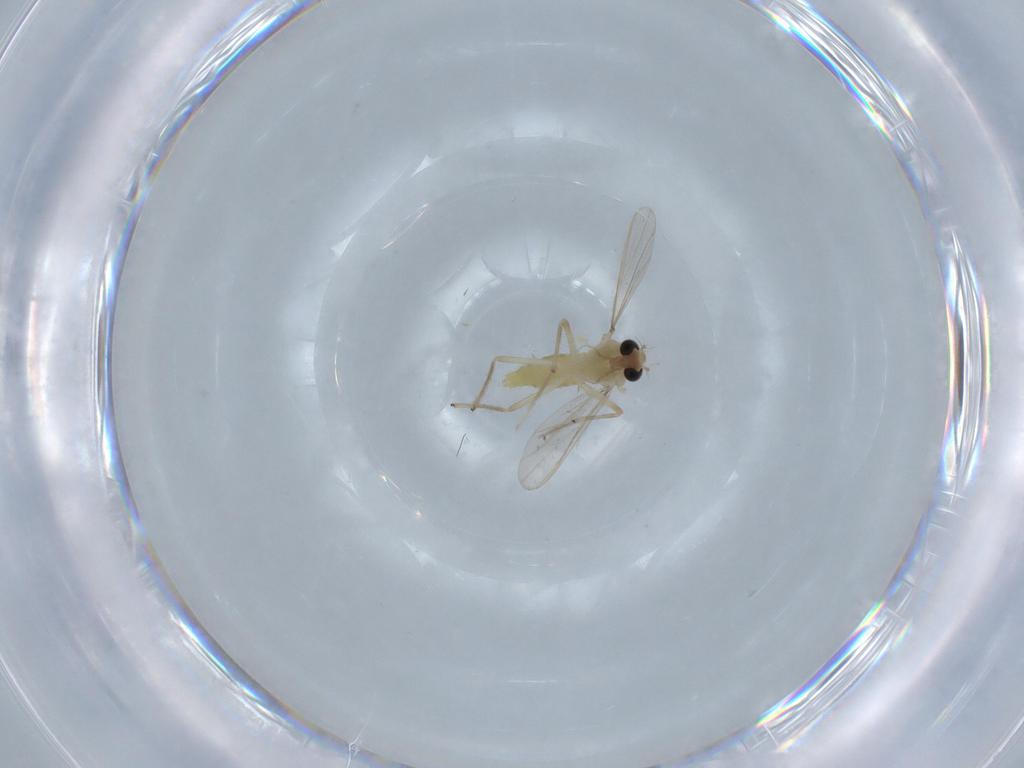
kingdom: Animalia
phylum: Arthropoda
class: Insecta
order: Diptera
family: Chironomidae
